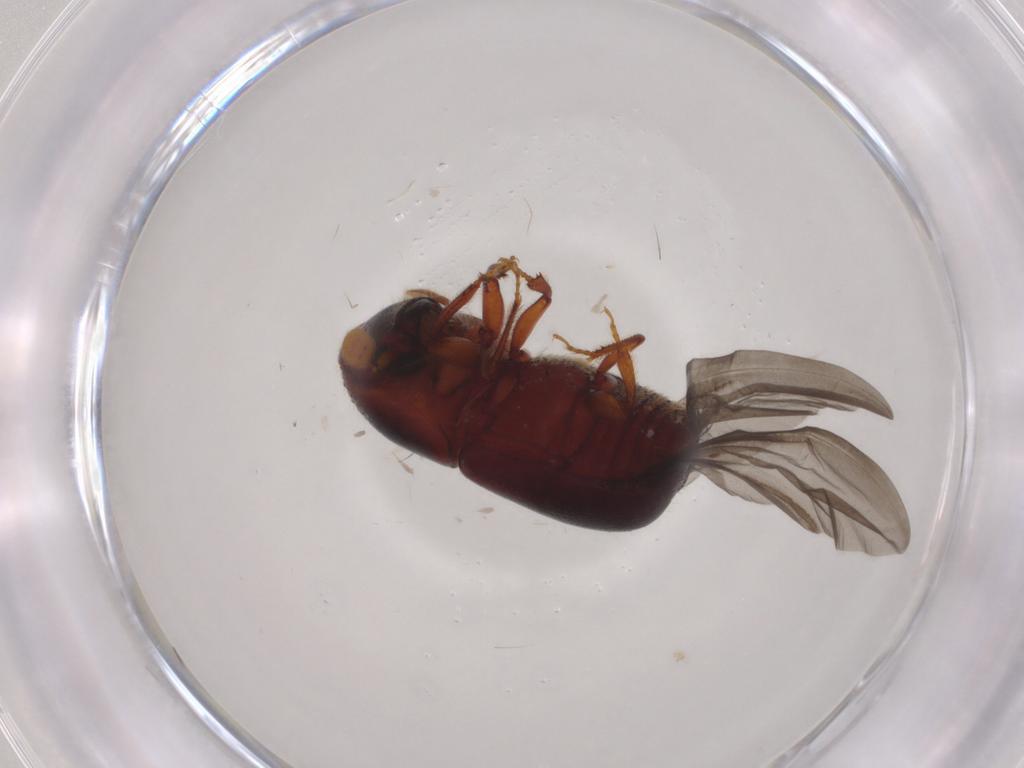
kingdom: Animalia
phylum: Arthropoda
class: Insecta
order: Coleoptera
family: Curculionidae
